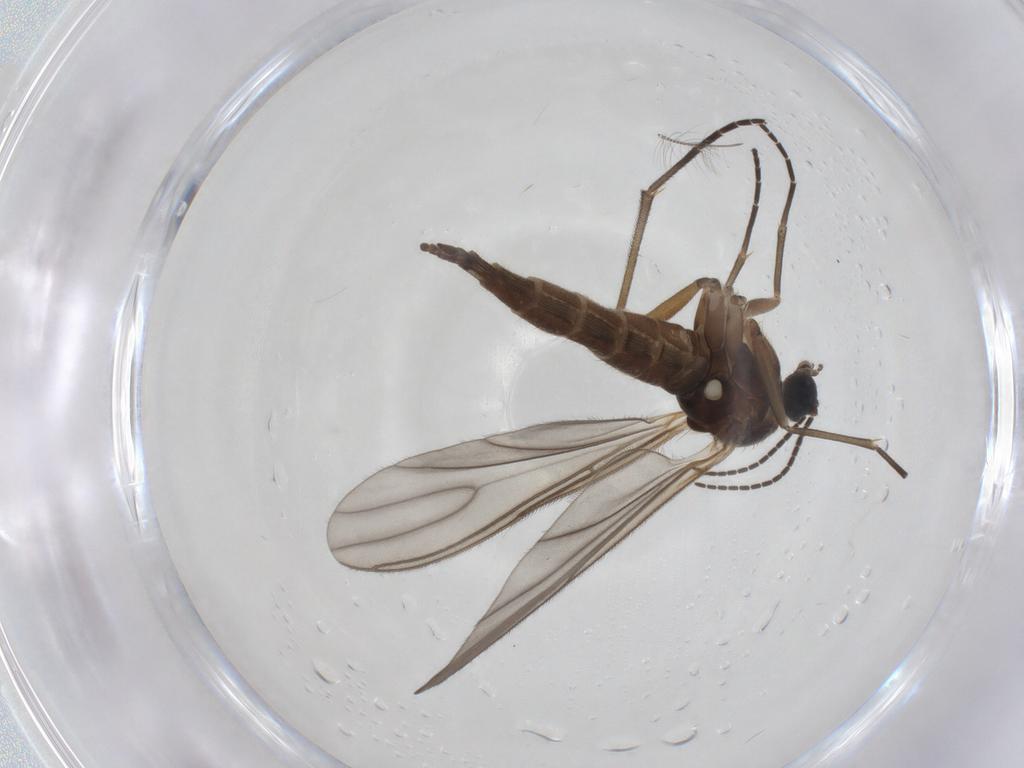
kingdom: Animalia
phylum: Arthropoda
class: Insecta
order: Diptera
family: Sciaridae
